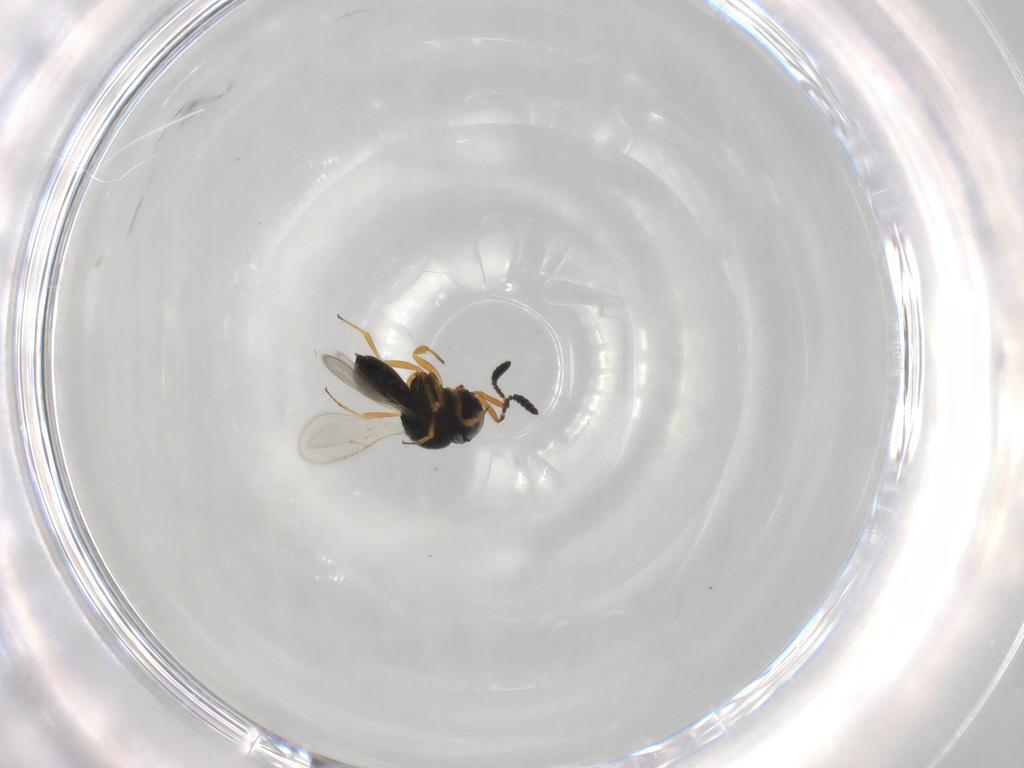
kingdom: Animalia
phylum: Arthropoda
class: Insecta
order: Hymenoptera
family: Scelionidae
